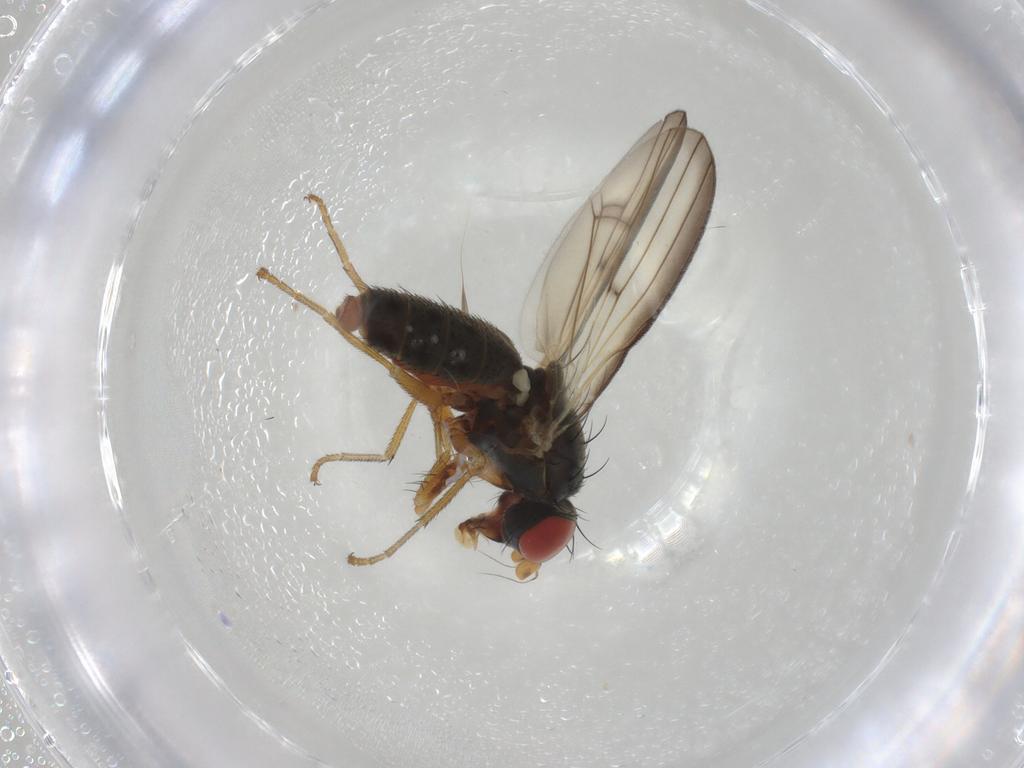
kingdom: Animalia
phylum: Arthropoda
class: Insecta
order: Diptera
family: Chamaemyiidae
